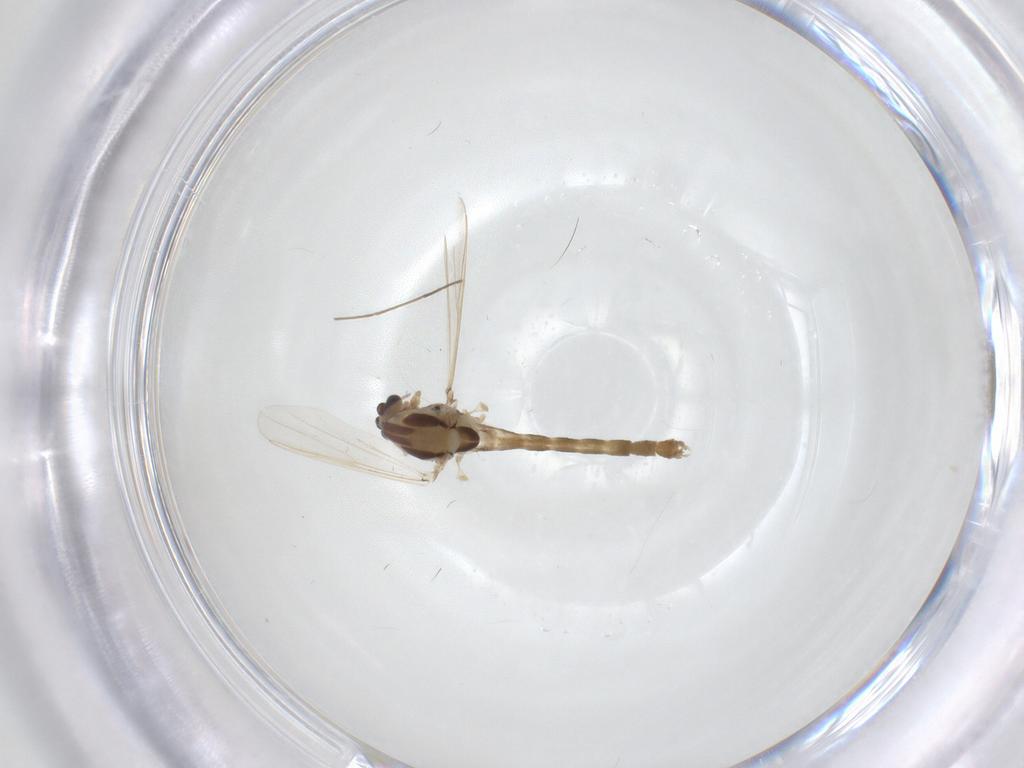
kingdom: Animalia
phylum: Arthropoda
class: Insecta
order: Diptera
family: Chironomidae
